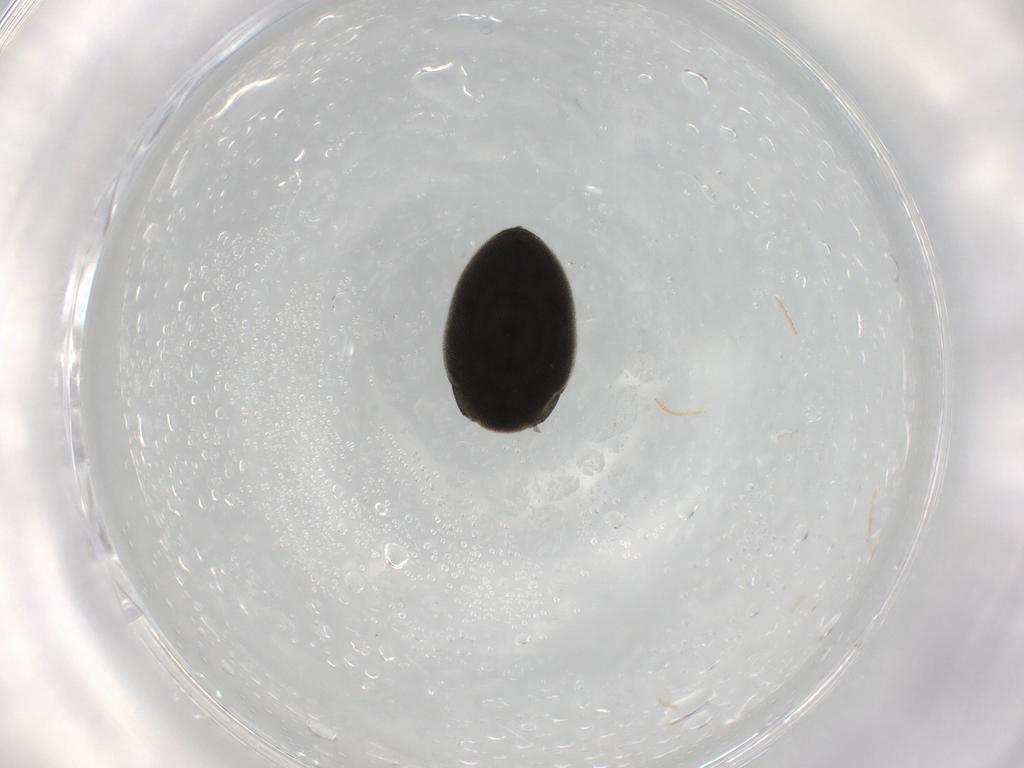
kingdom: Animalia
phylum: Arthropoda
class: Insecta
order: Coleoptera
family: Limnichidae
